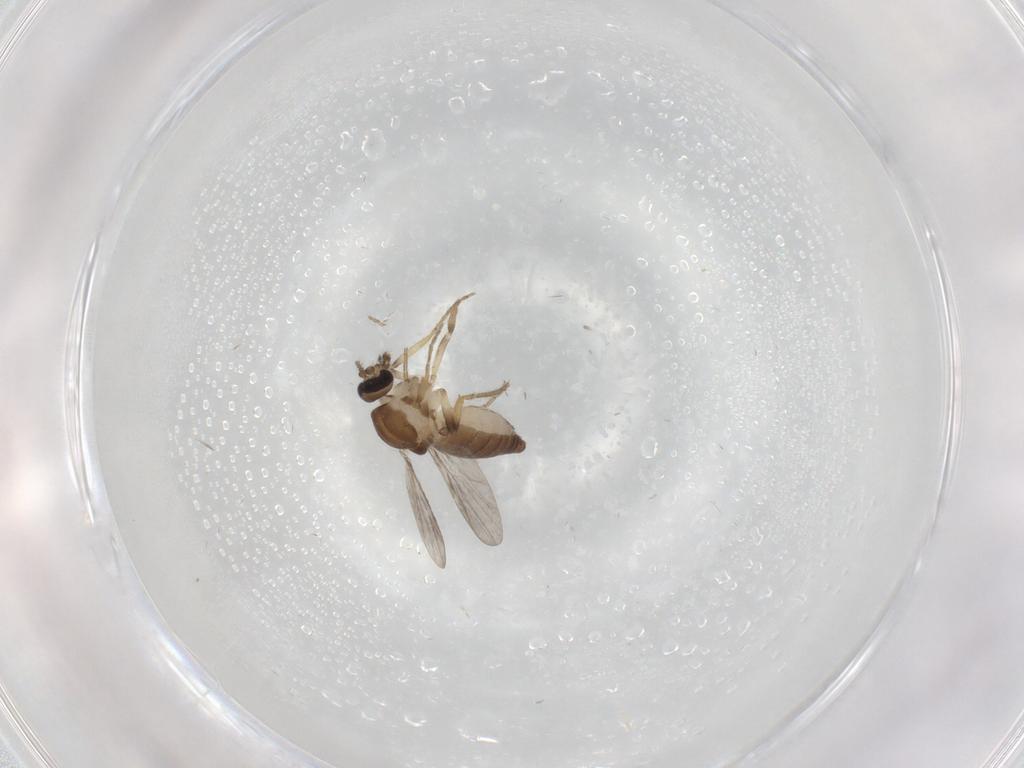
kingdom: Animalia
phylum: Arthropoda
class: Insecta
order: Diptera
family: Ceratopogonidae
